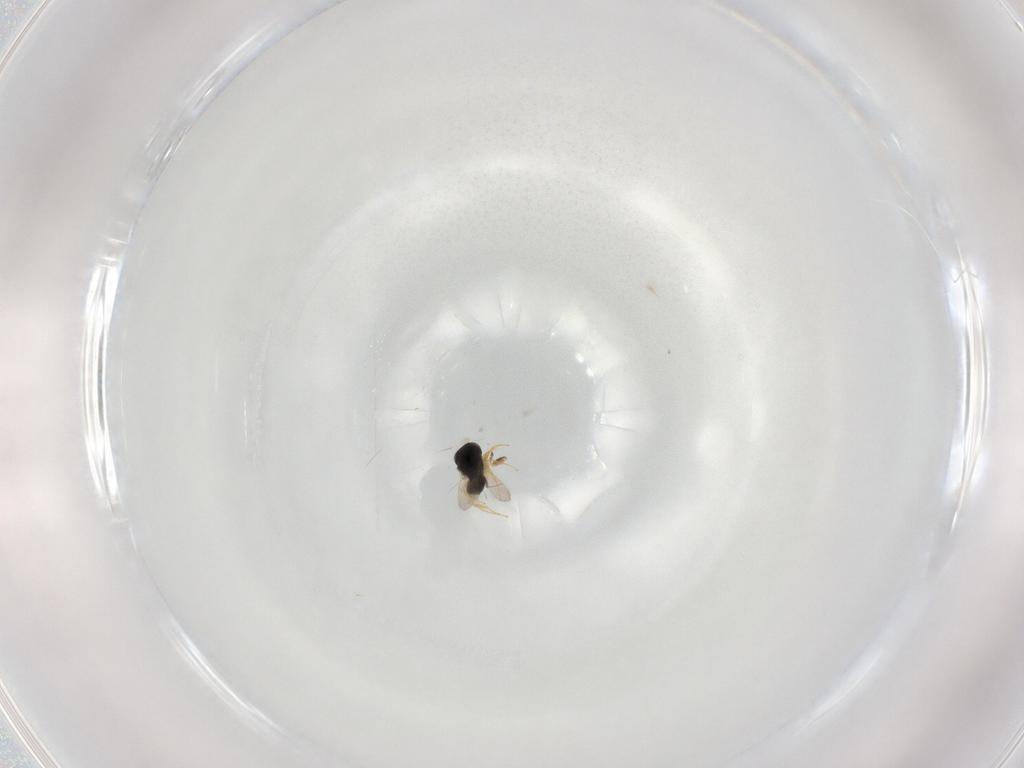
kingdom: Animalia
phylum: Arthropoda
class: Insecta
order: Hymenoptera
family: Scelionidae
